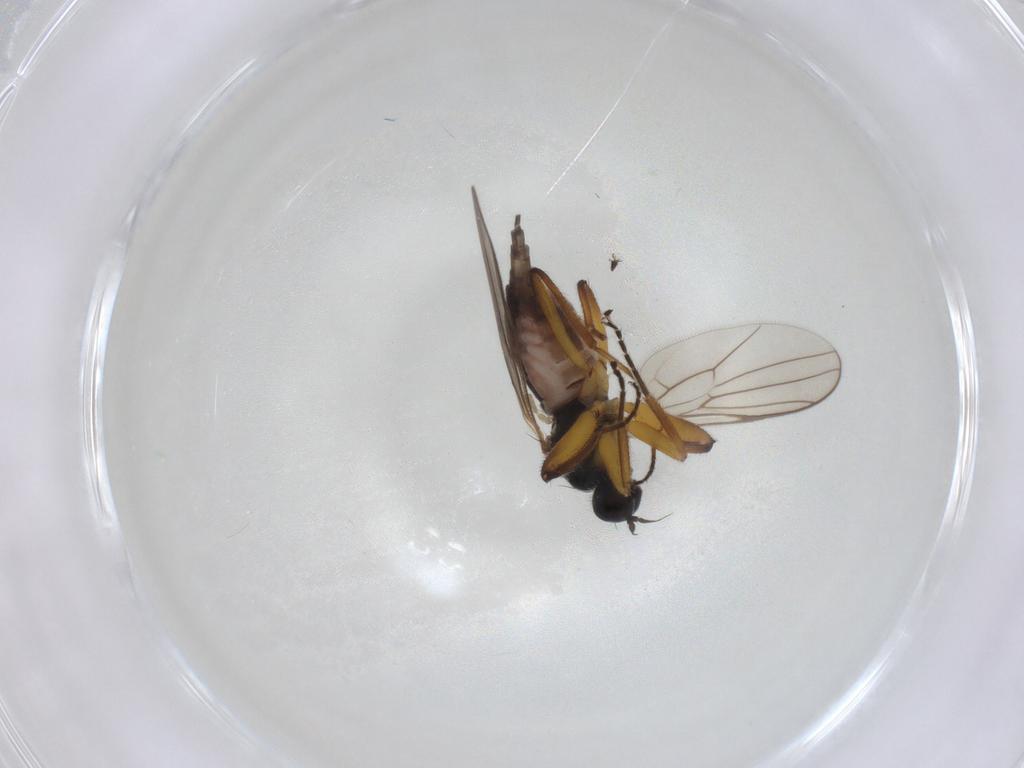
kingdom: Animalia
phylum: Arthropoda
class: Insecta
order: Diptera
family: Hybotidae
